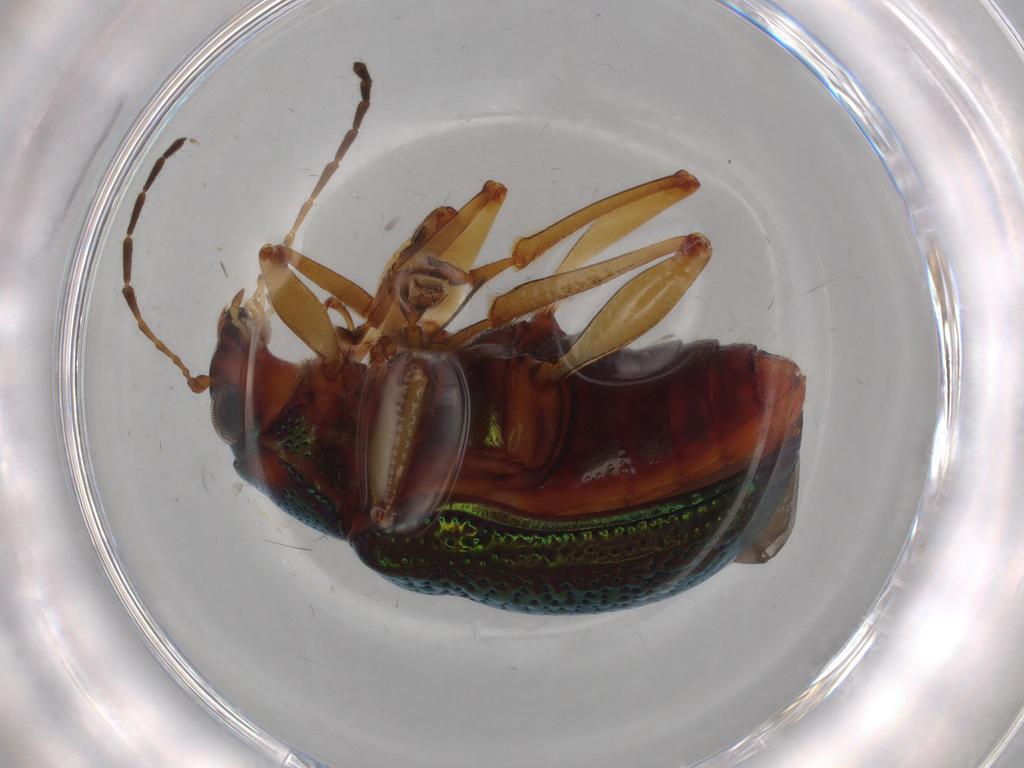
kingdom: Animalia
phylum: Arthropoda
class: Insecta
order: Coleoptera
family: Chrysomelidae
